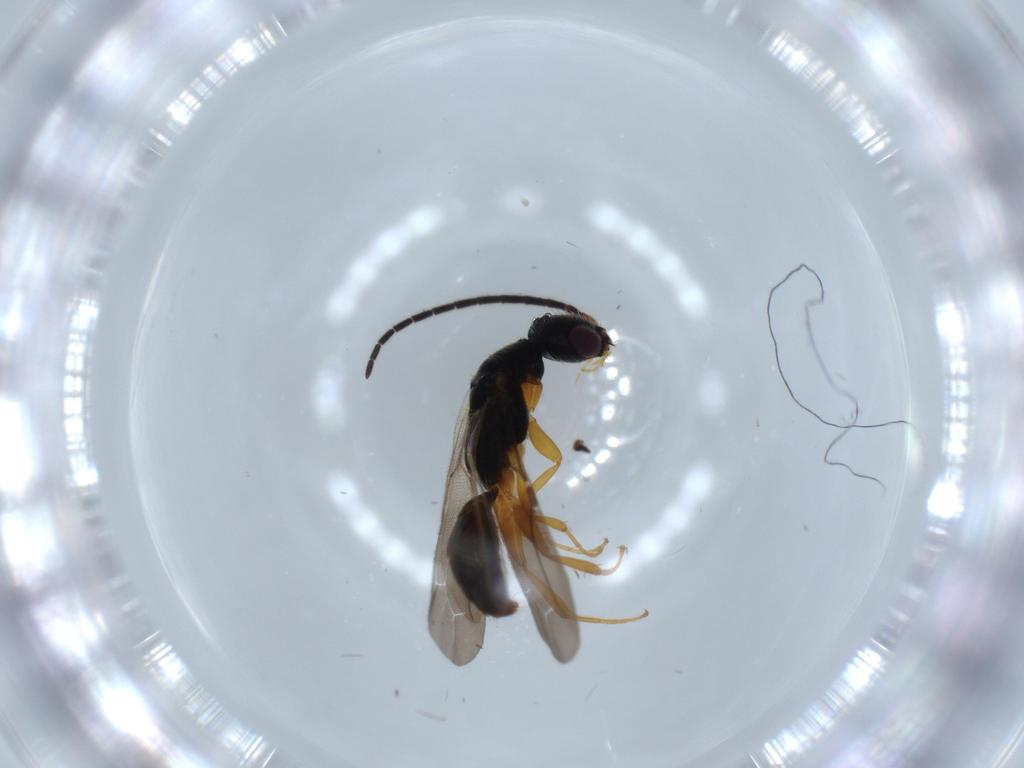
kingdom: Animalia
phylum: Arthropoda
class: Insecta
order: Hymenoptera
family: Bethylidae
